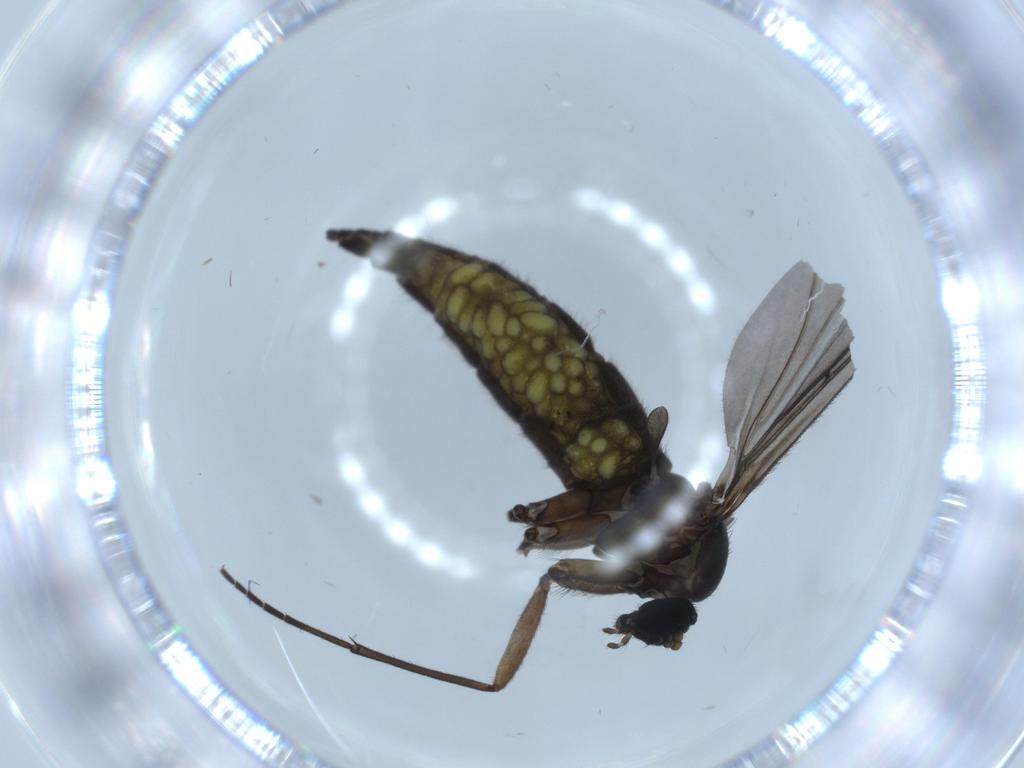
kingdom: Animalia
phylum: Arthropoda
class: Insecta
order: Diptera
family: Sciaridae
